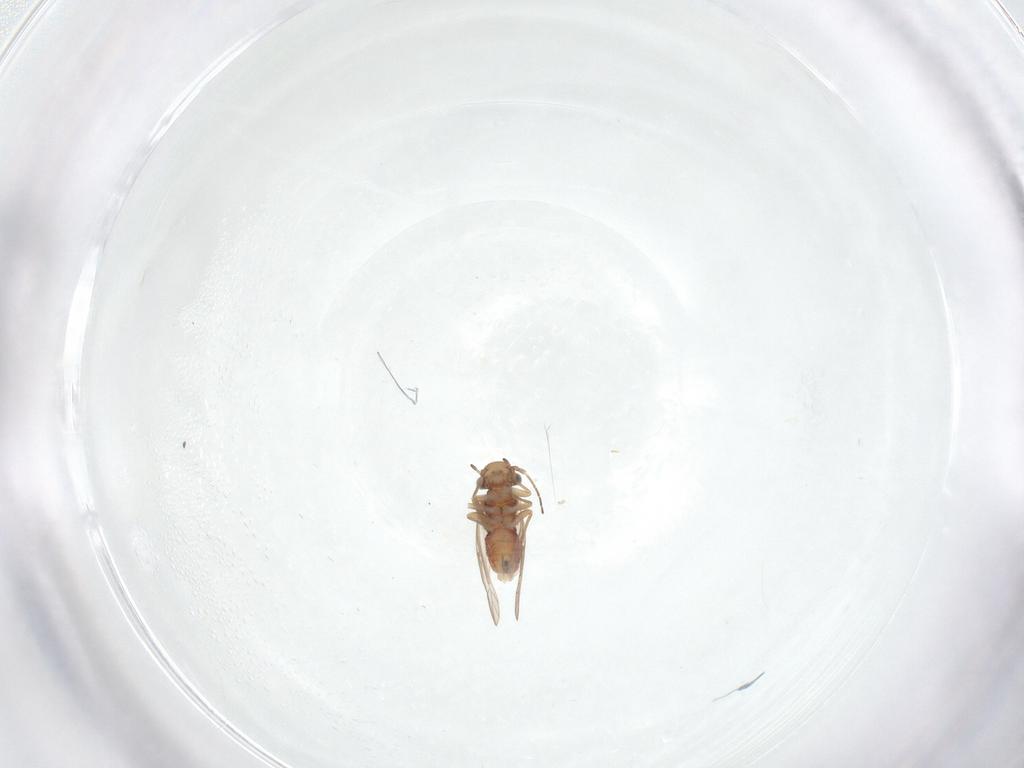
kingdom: Animalia
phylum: Arthropoda
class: Insecta
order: Psocodea
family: Peripsocidae
